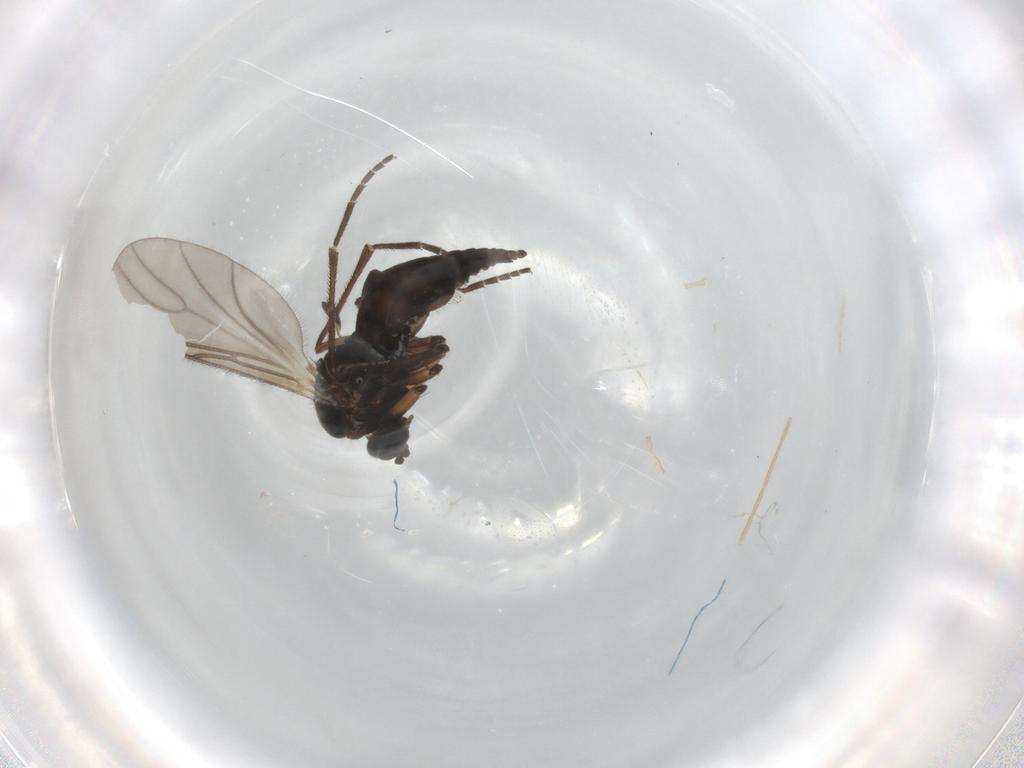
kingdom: Animalia
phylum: Arthropoda
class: Insecta
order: Diptera
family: Sciaridae
